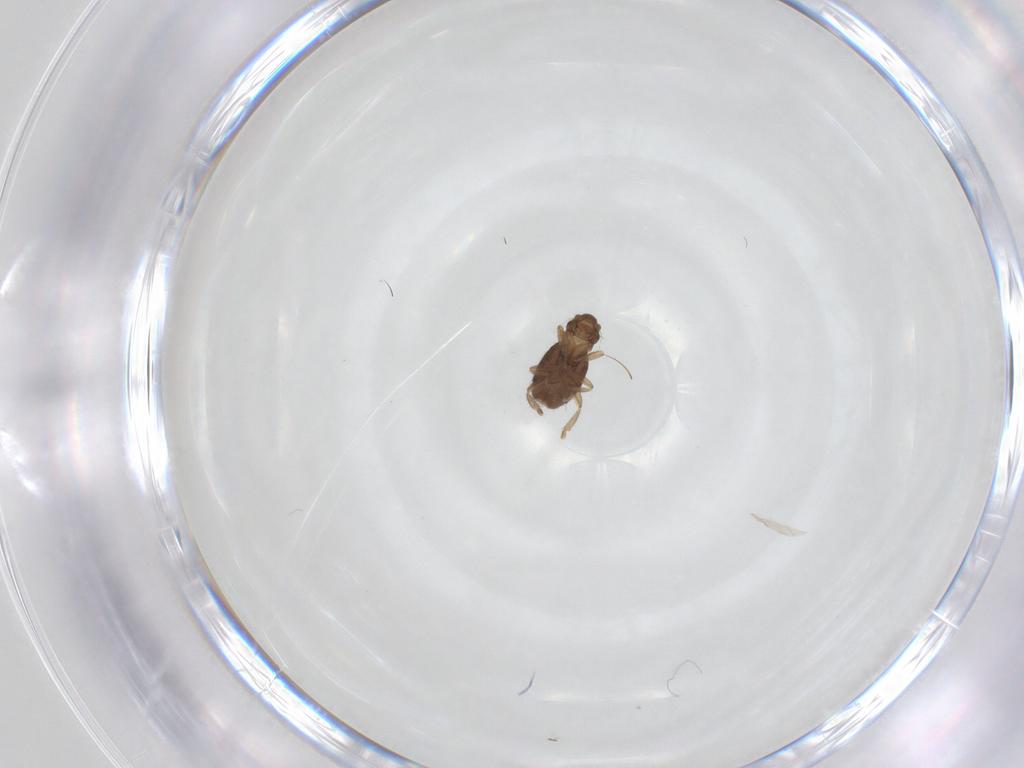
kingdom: Animalia
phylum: Arthropoda
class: Insecta
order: Diptera
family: Phoridae
